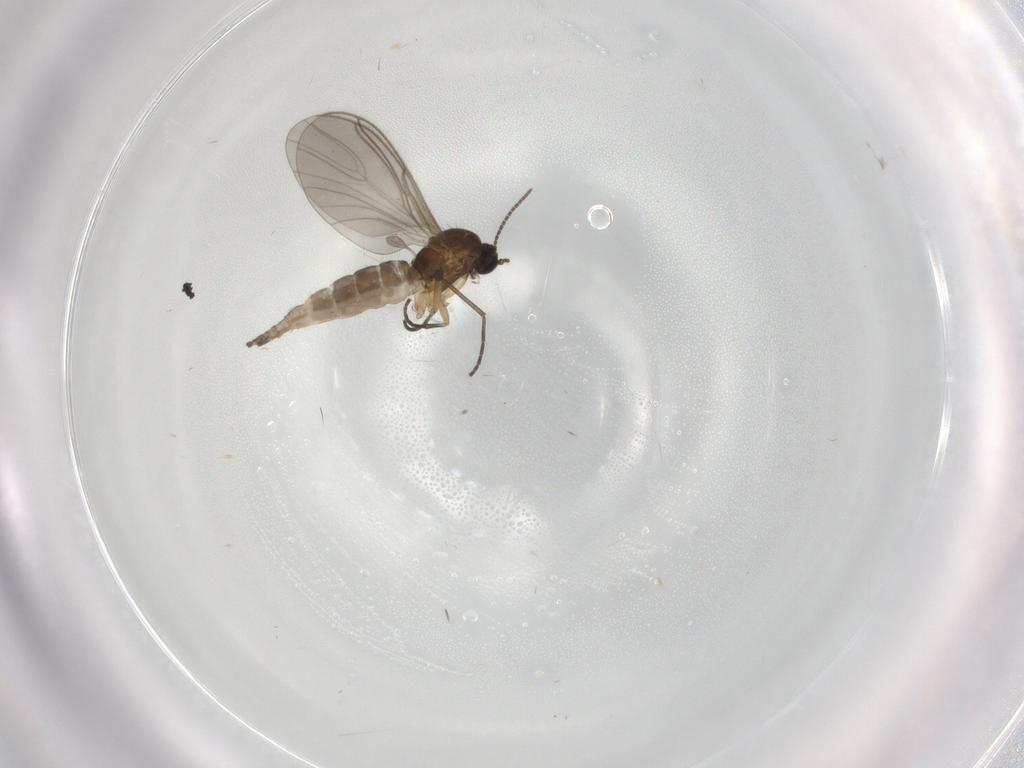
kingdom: Animalia
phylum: Arthropoda
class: Insecta
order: Diptera
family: Sciaridae
